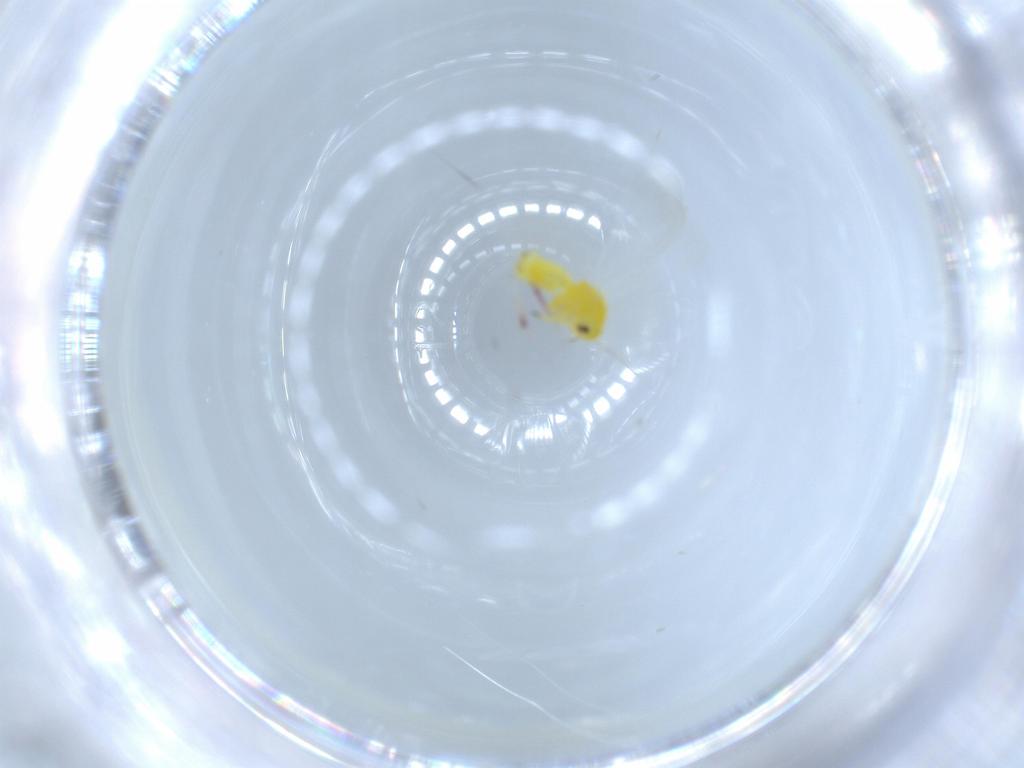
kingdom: Animalia
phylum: Arthropoda
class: Insecta
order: Hemiptera
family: Aleyrodidae
